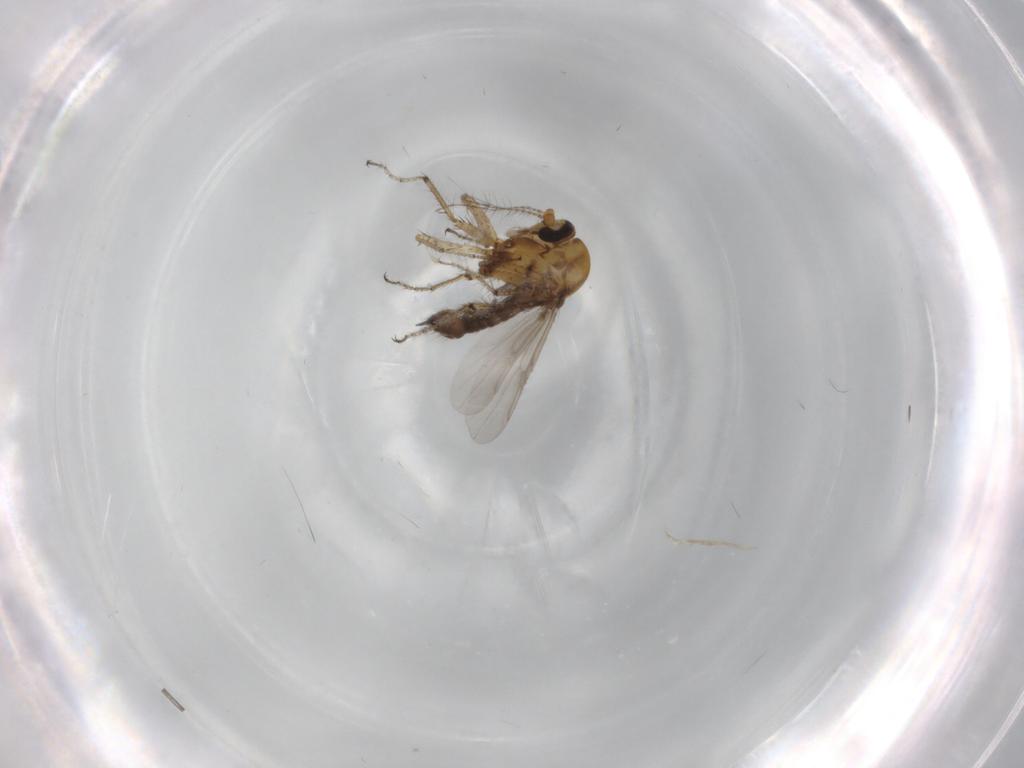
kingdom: Animalia
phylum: Arthropoda
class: Insecta
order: Diptera
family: Ceratopogonidae
